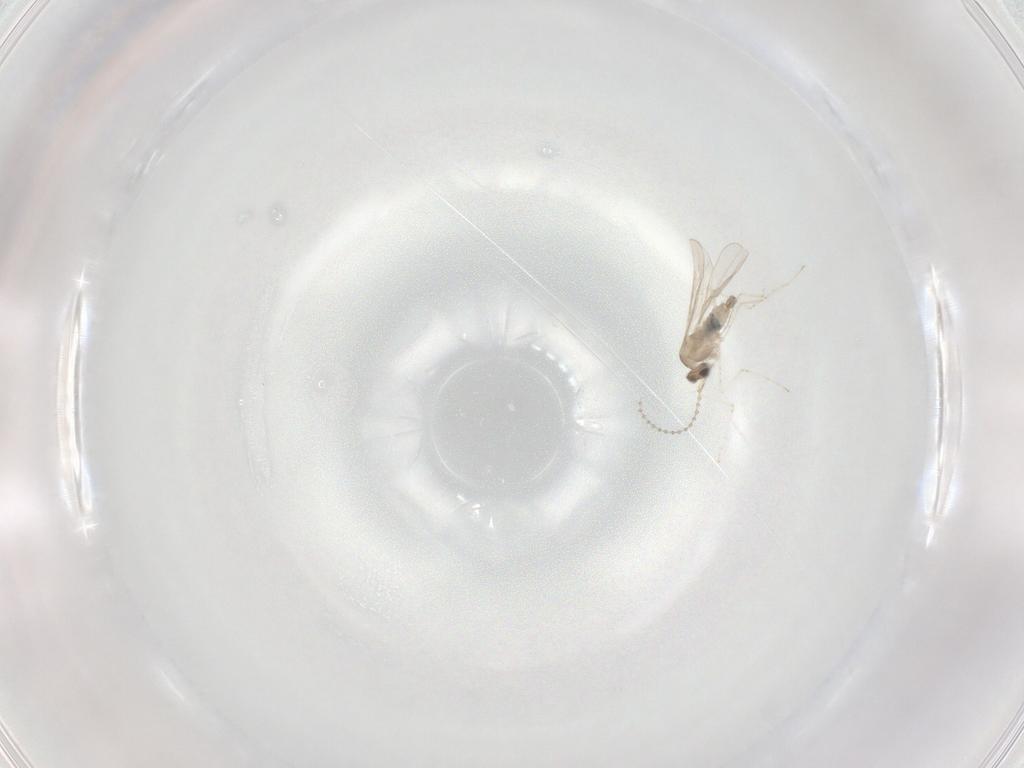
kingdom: Animalia
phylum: Arthropoda
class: Insecta
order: Diptera
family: Cecidomyiidae
